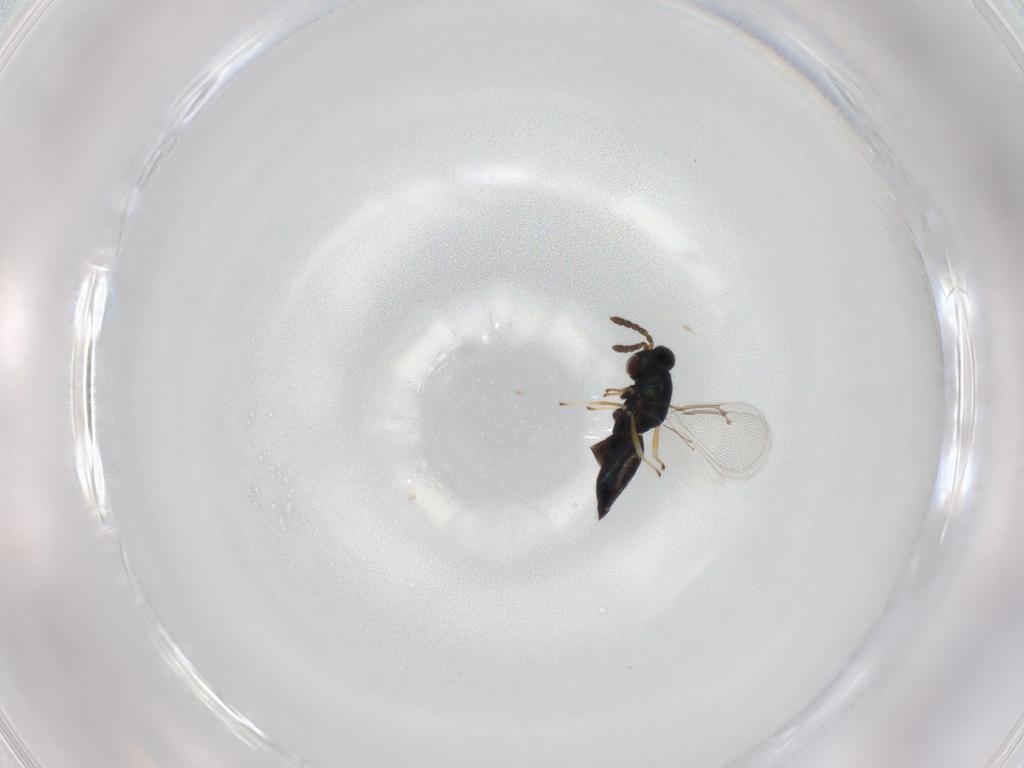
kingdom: Animalia
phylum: Arthropoda
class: Insecta
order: Hymenoptera
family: Eulophidae
